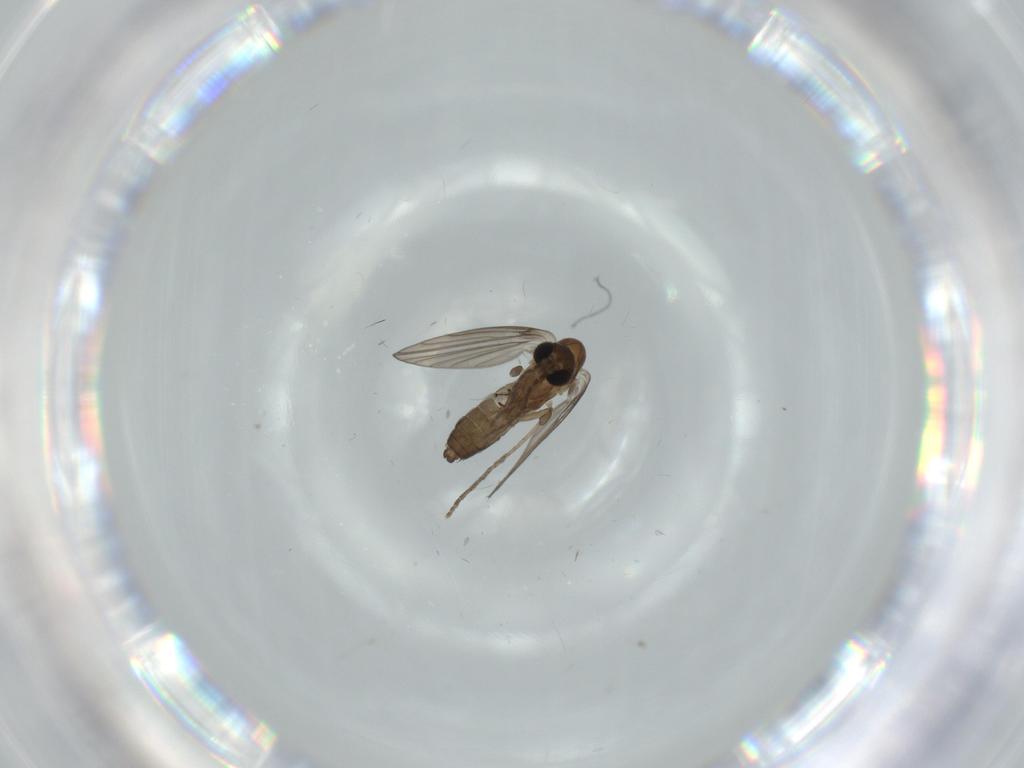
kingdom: Animalia
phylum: Arthropoda
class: Insecta
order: Diptera
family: Psychodidae
